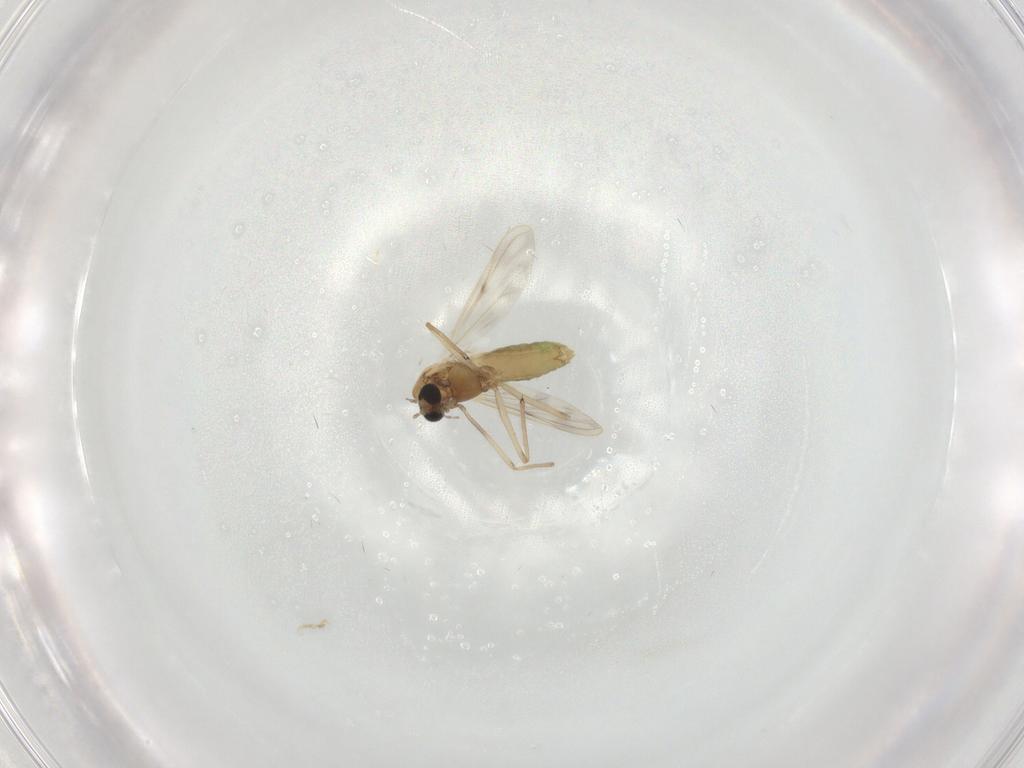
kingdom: Animalia
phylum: Arthropoda
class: Insecta
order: Diptera
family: Chironomidae
